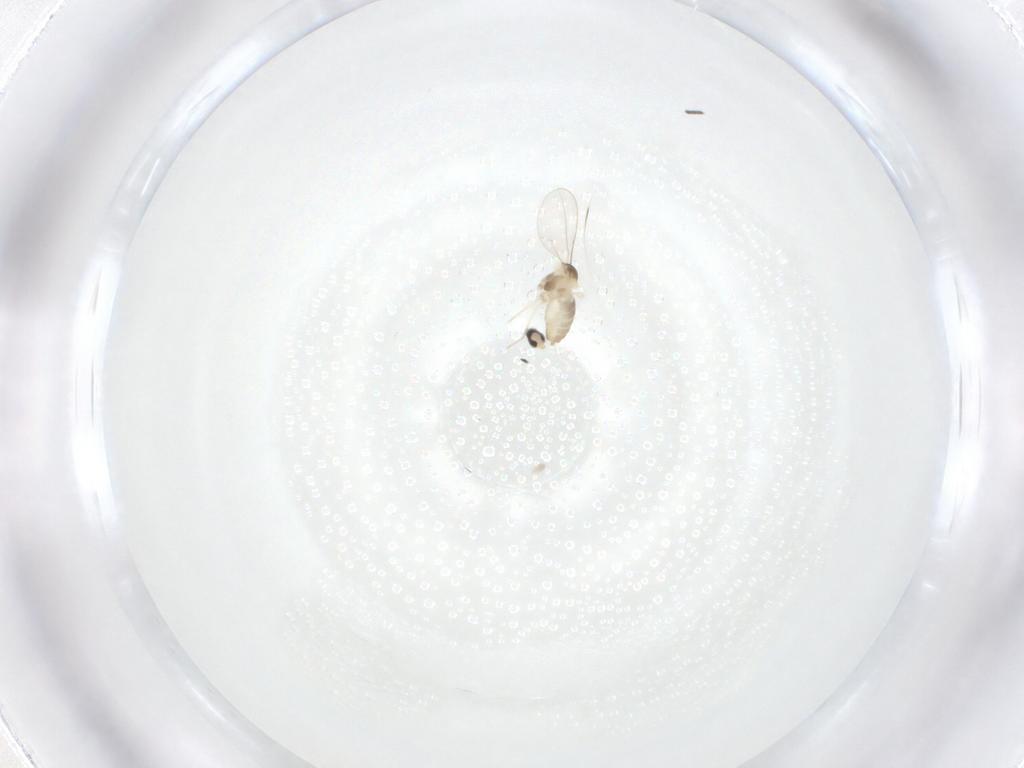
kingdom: Animalia
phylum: Arthropoda
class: Insecta
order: Diptera
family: Cecidomyiidae
